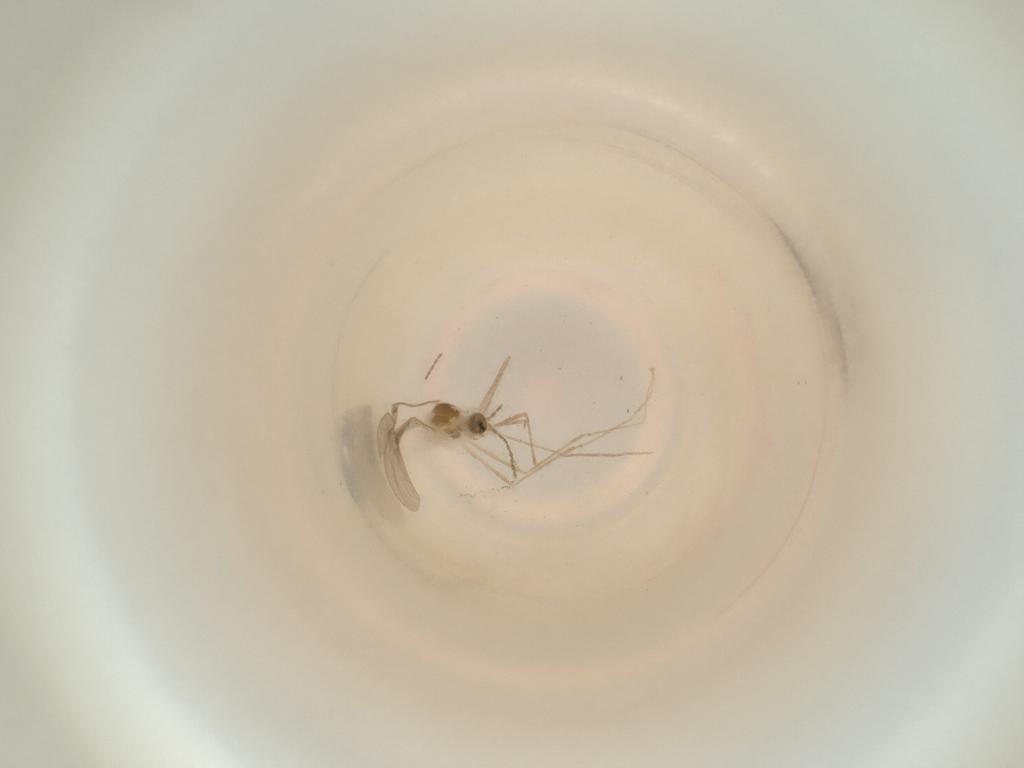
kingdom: Animalia
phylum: Arthropoda
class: Insecta
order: Diptera
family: Cecidomyiidae
